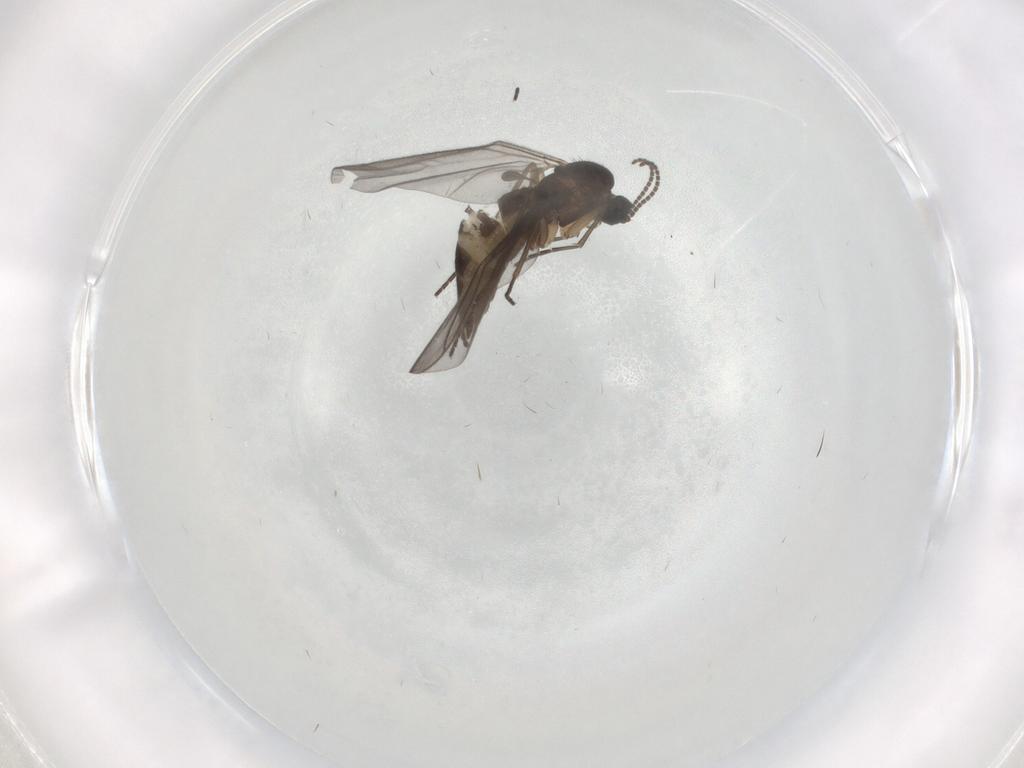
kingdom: Animalia
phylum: Arthropoda
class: Insecta
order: Diptera
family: Sciaridae
